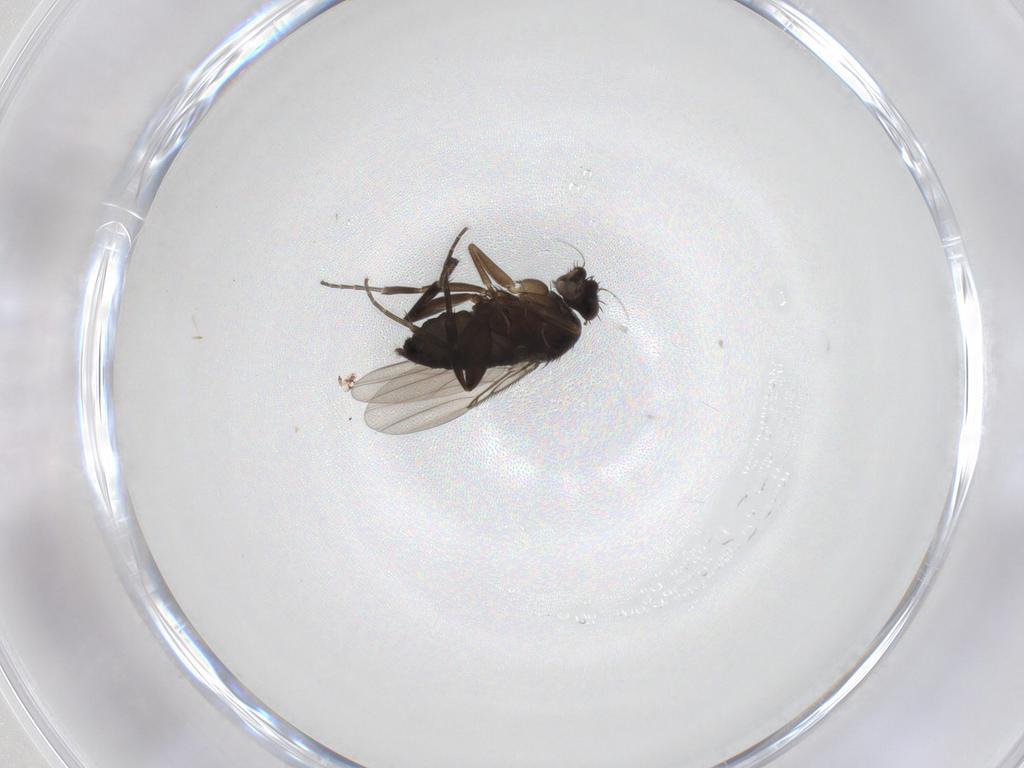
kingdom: Animalia
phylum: Arthropoda
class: Insecta
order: Diptera
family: Phoridae
